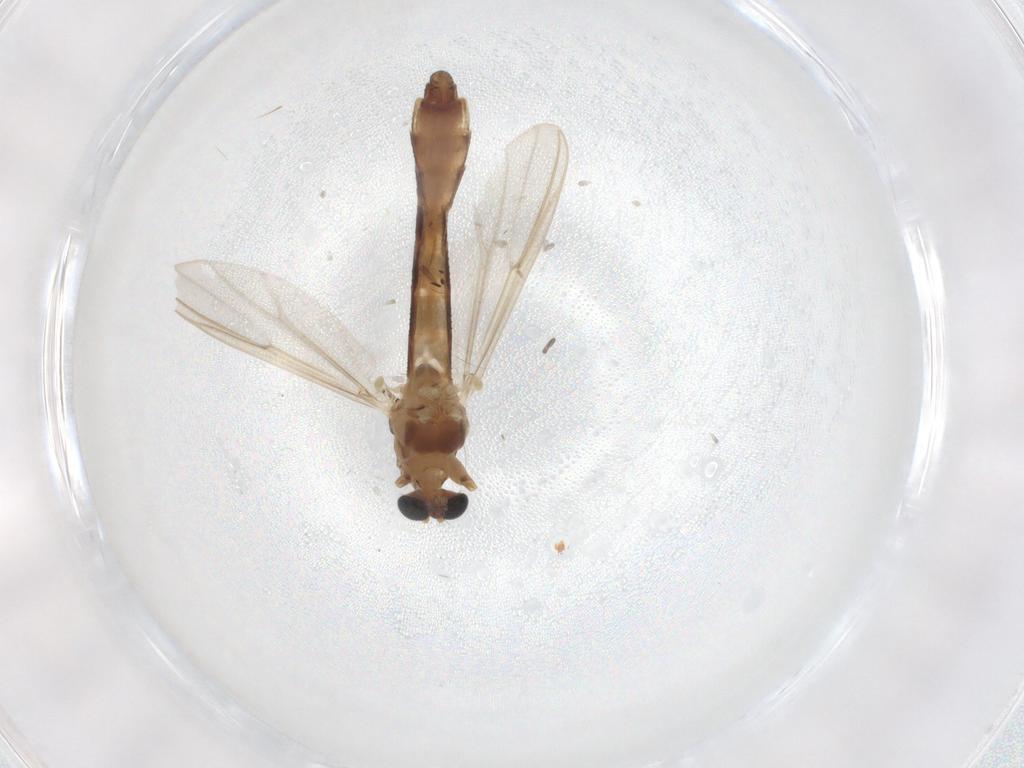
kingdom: Animalia
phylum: Arthropoda
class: Insecta
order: Diptera
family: Chironomidae
